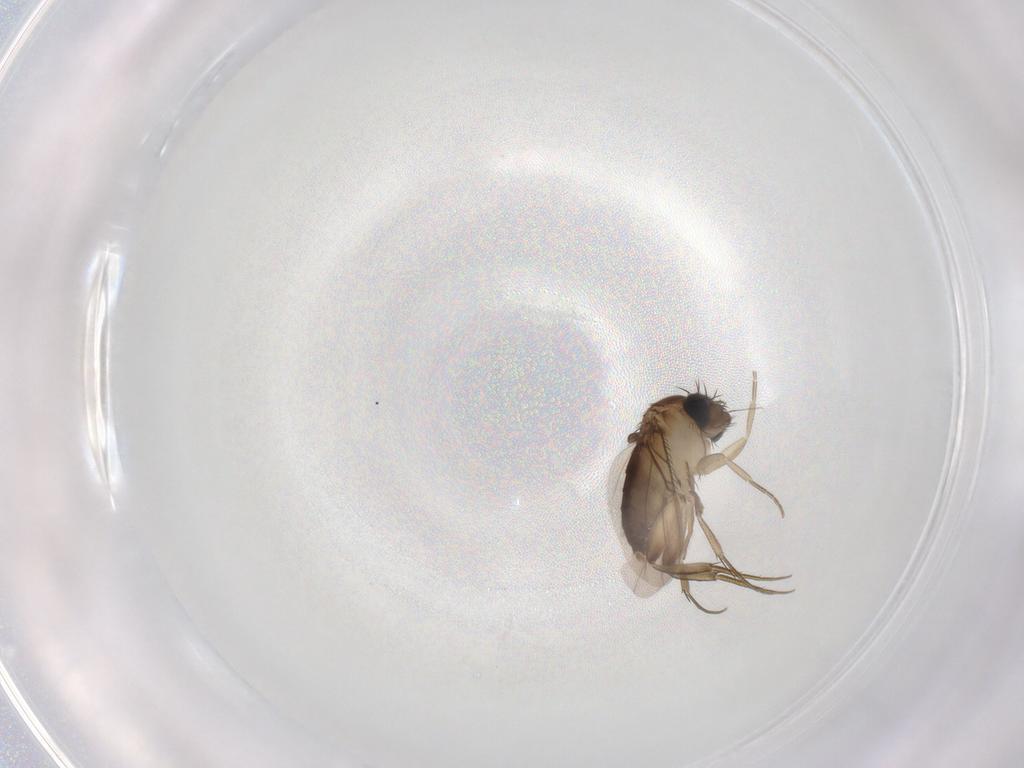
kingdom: Animalia
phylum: Arthropoda
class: Insecta
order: Diptera
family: Phoridae
